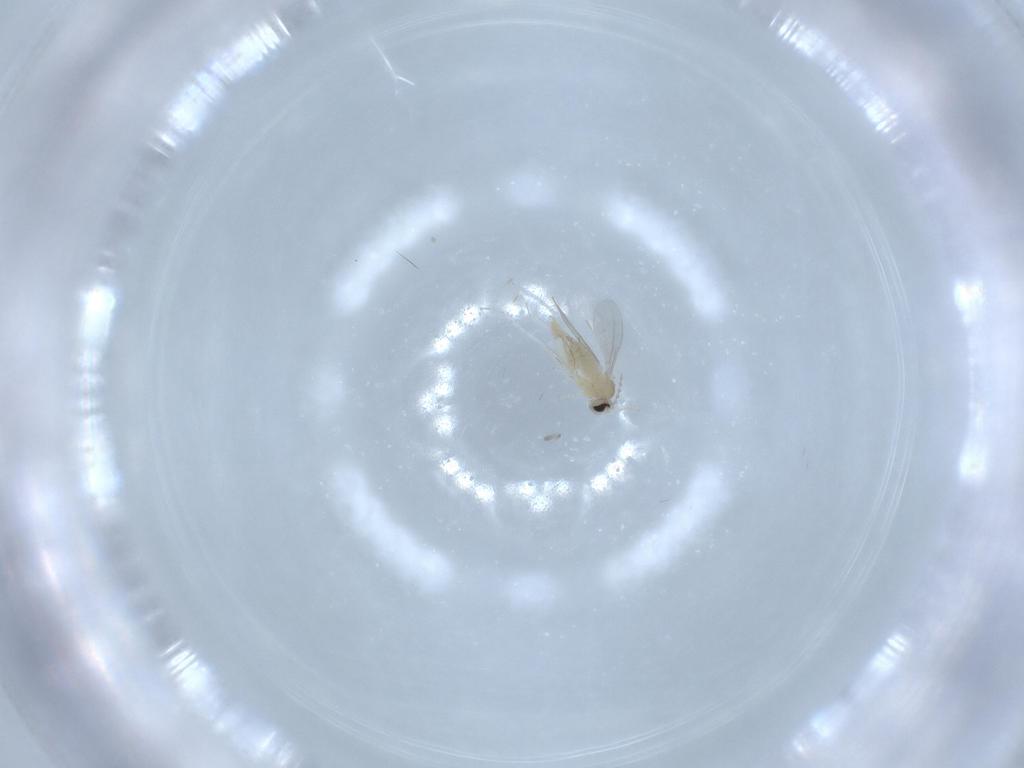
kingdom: Animalia
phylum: Arthropoda
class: Insecta
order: Diptera
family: Cecidomyiidae
